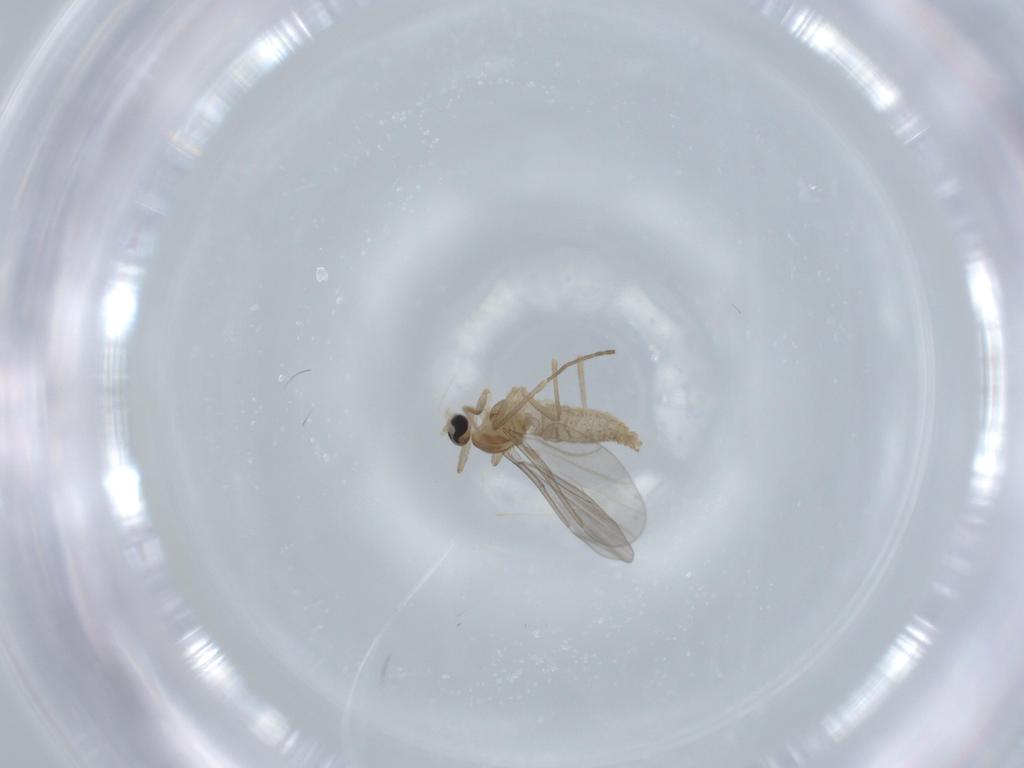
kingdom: Animalia
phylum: Arthropoda
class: Insecta
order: Diptera
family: Cecidomyiidae
